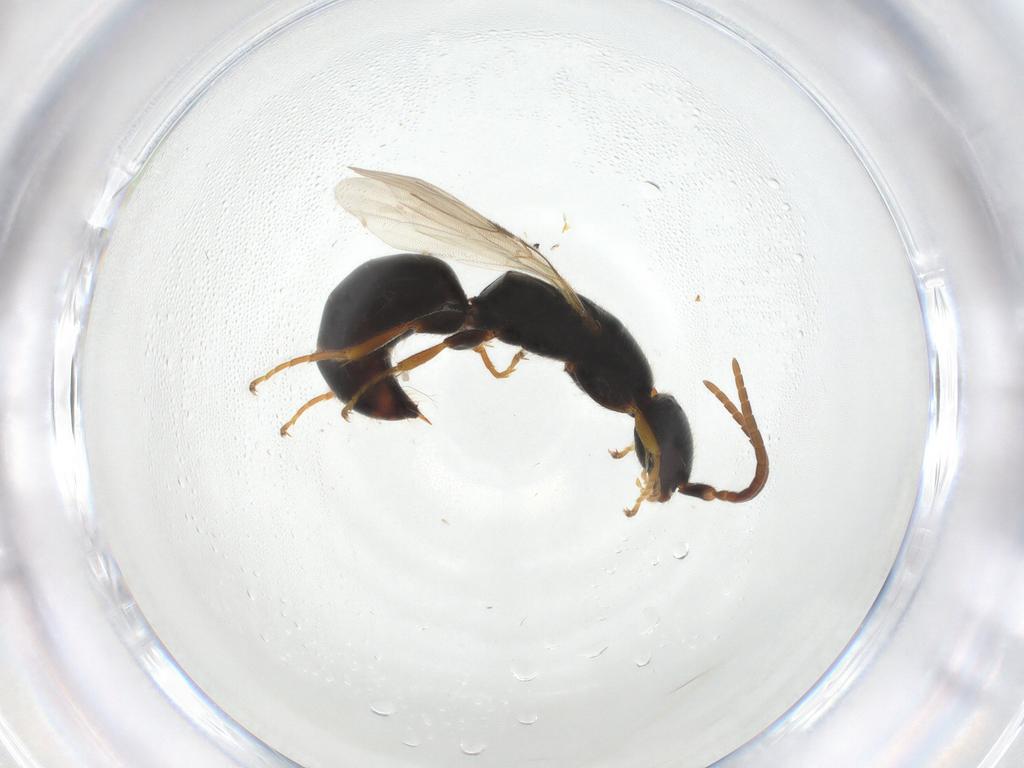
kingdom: Animalia
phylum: Arthropoda
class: Insecta
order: Hymenoptera
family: Bethylidae
